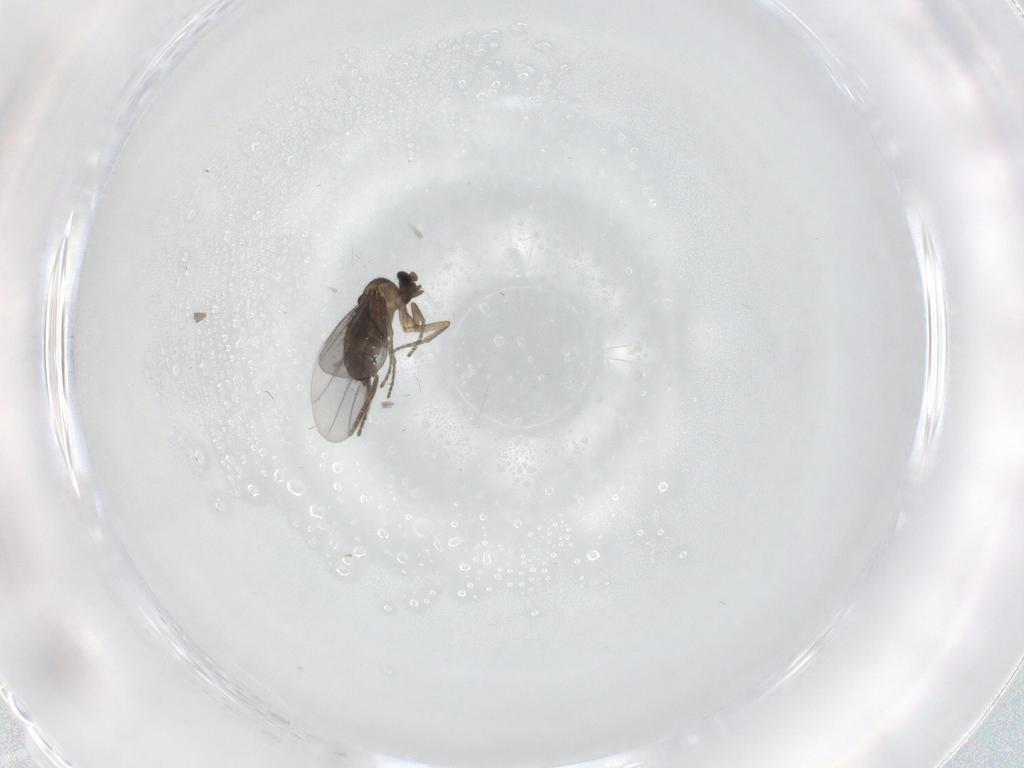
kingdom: Animalia
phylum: Arthropoda
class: Insecta
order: Diptera
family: Phoridae
